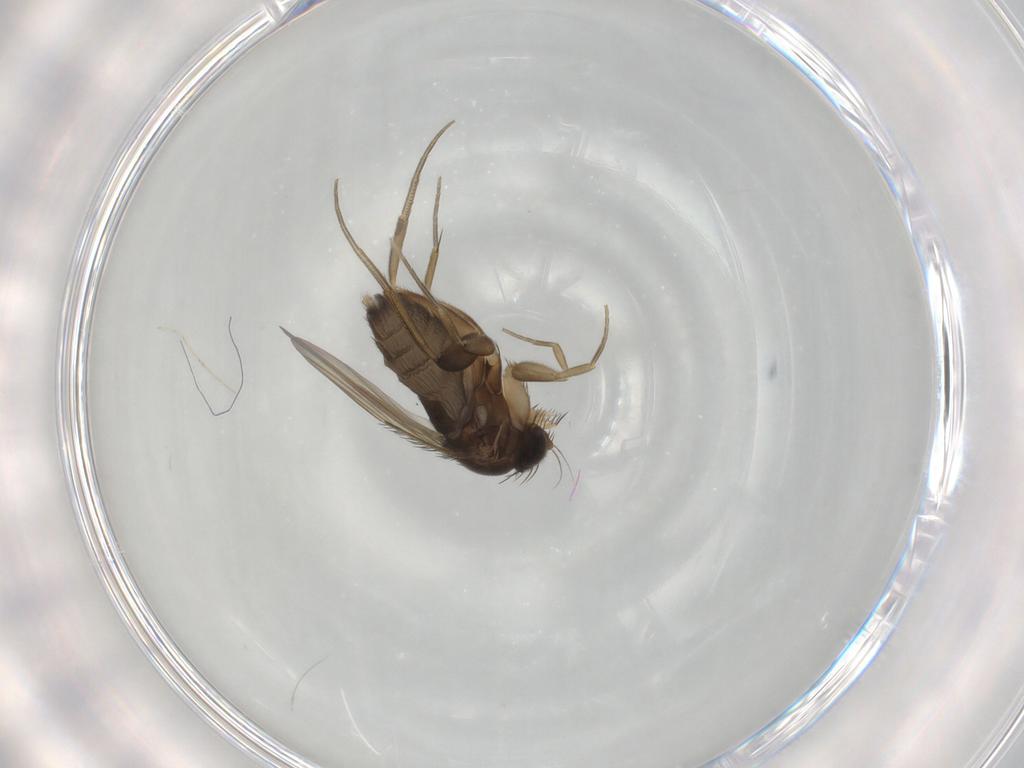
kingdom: Animalia
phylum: Arthropoda
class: Insecta
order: Diptera
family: Phoridae
